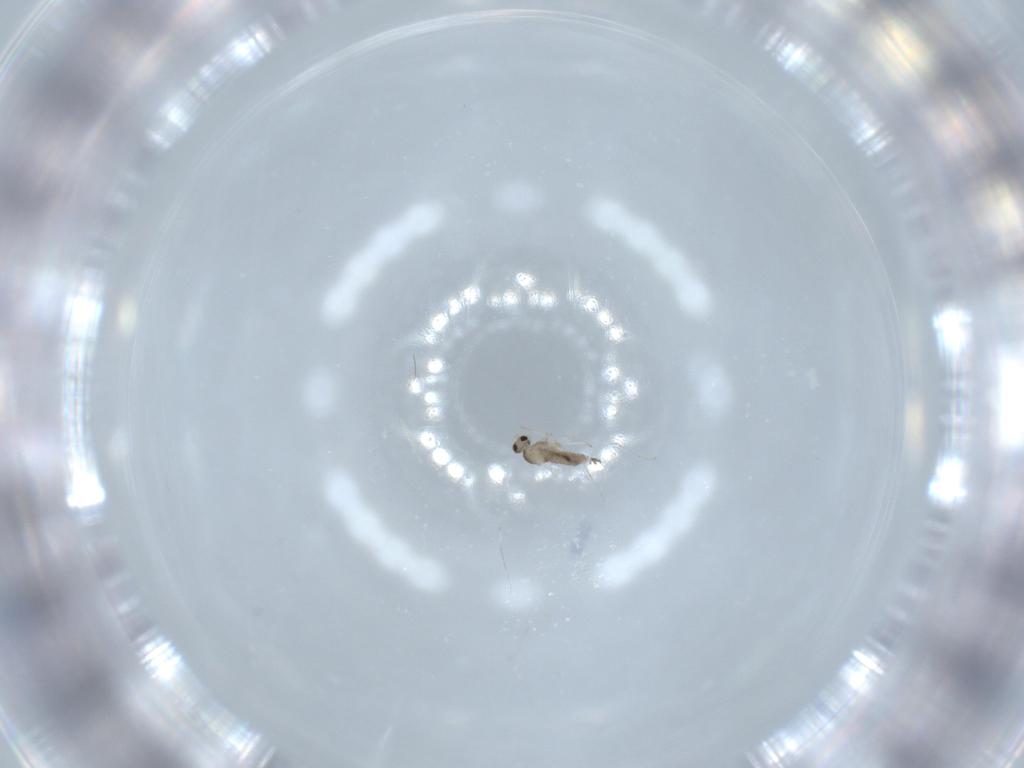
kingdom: Animalia
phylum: Arthropoda
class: Insecta
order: Diptera
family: Cecidomyiidae
